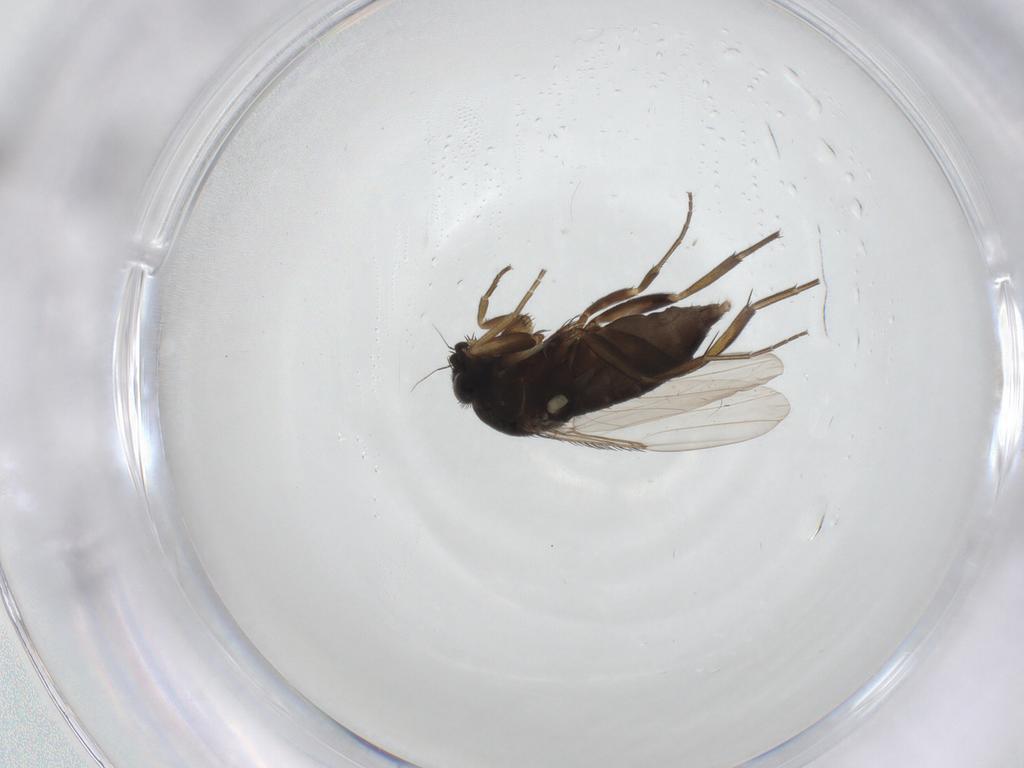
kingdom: Animalia
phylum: Arthropoda
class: Insecta
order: Diptera
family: Phoridae
